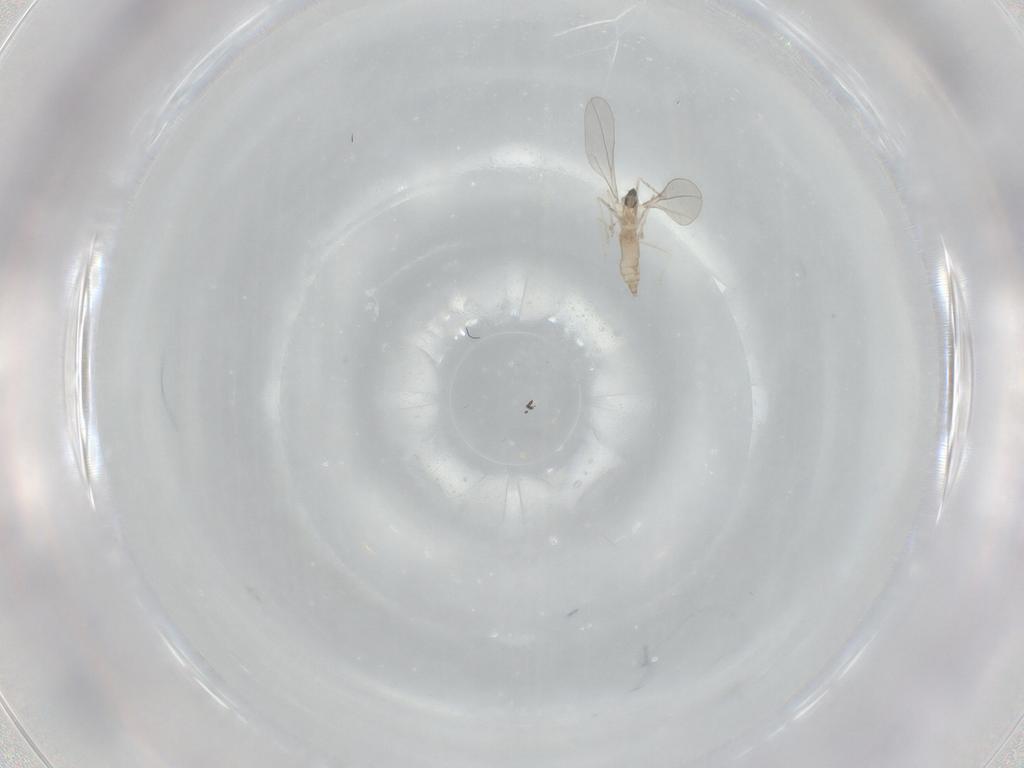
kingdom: Animalia
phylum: Arthropoda
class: Insecta
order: Diptera
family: Cecidomyiidae
